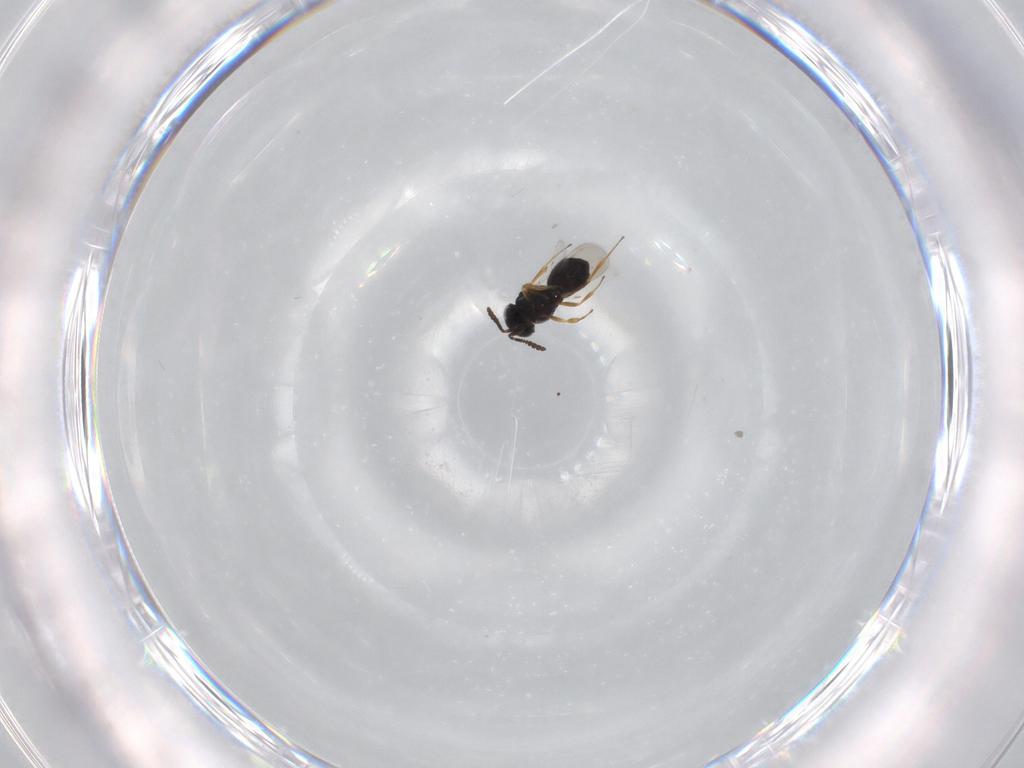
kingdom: Animalia
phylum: Arthropoda
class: Insecta
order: Hymenoptera
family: Scelionidae
